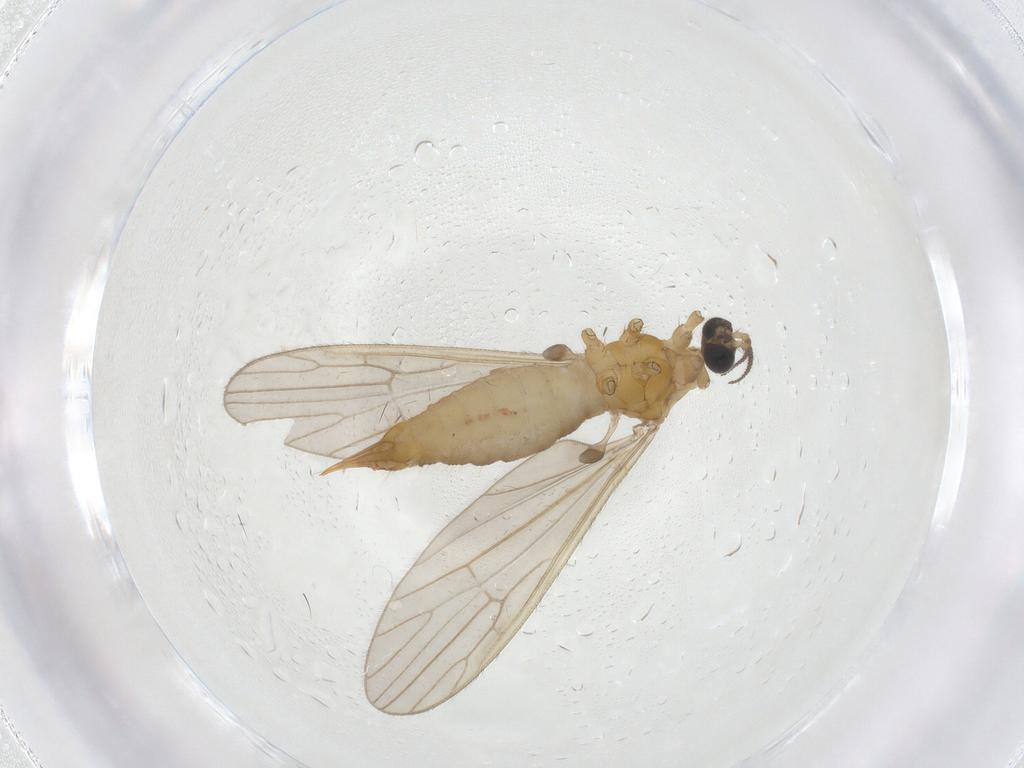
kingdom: Animalia
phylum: Arthropoda
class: Insecta
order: Diptera
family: Limoniidae
